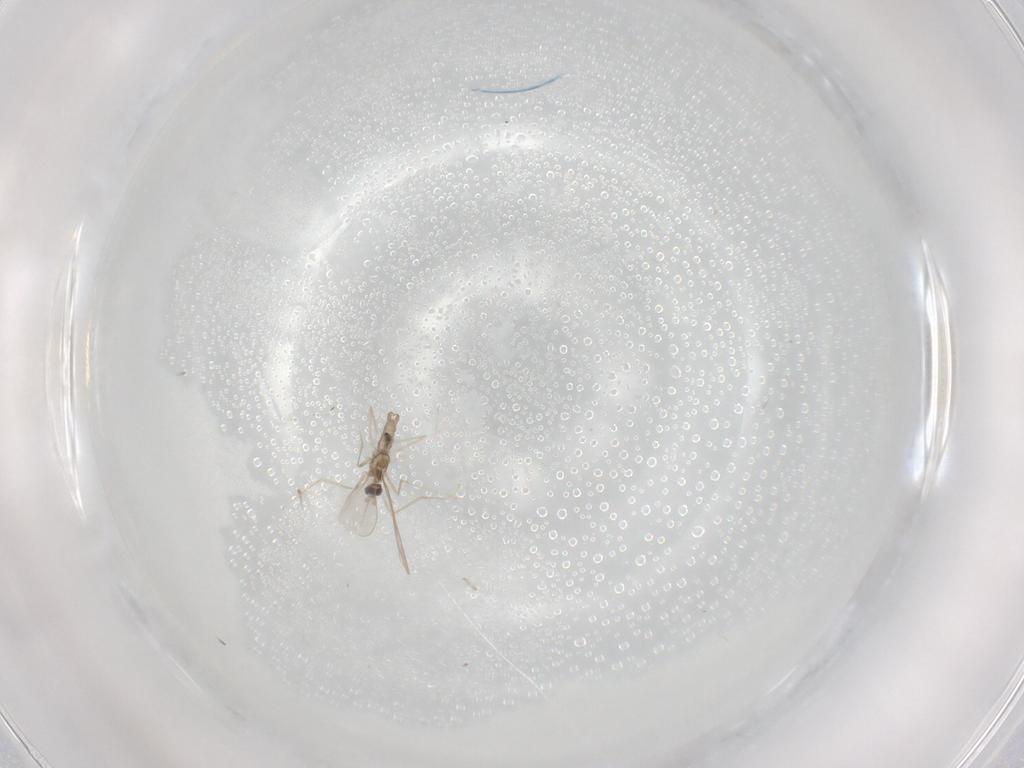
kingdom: Animalia
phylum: Arthropoda
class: Insecta
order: Diptera
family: Cecidomyiidae
